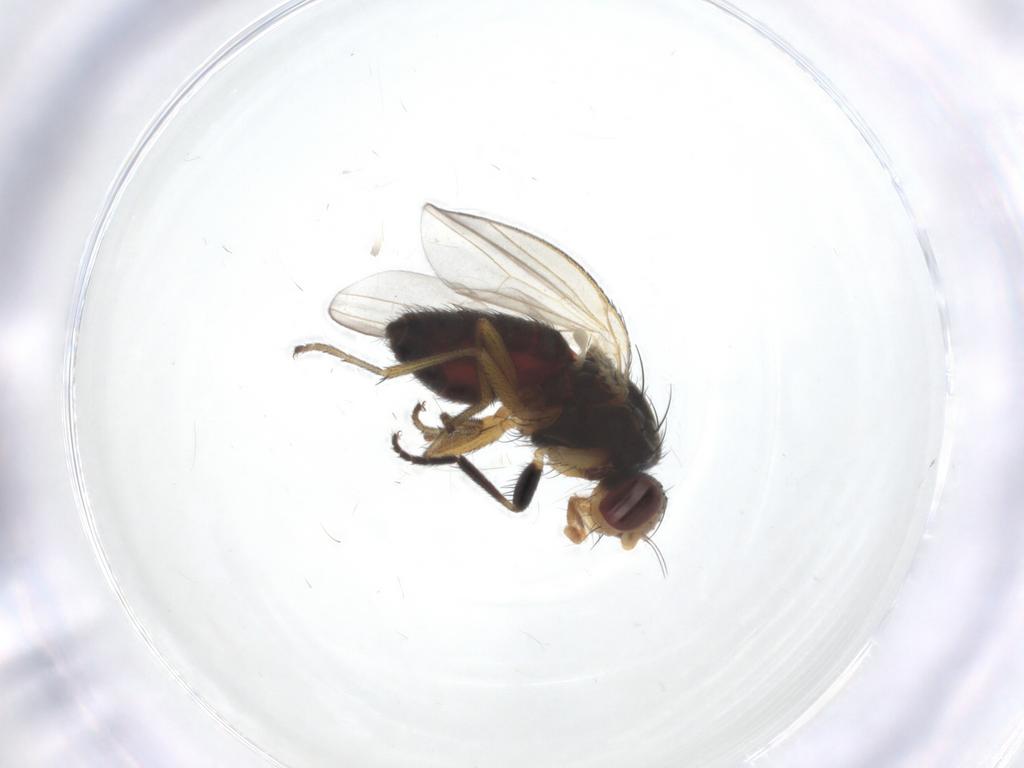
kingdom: Animalia
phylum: Arthropoda
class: Insecta
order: Diptera
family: Heleomyzidae
